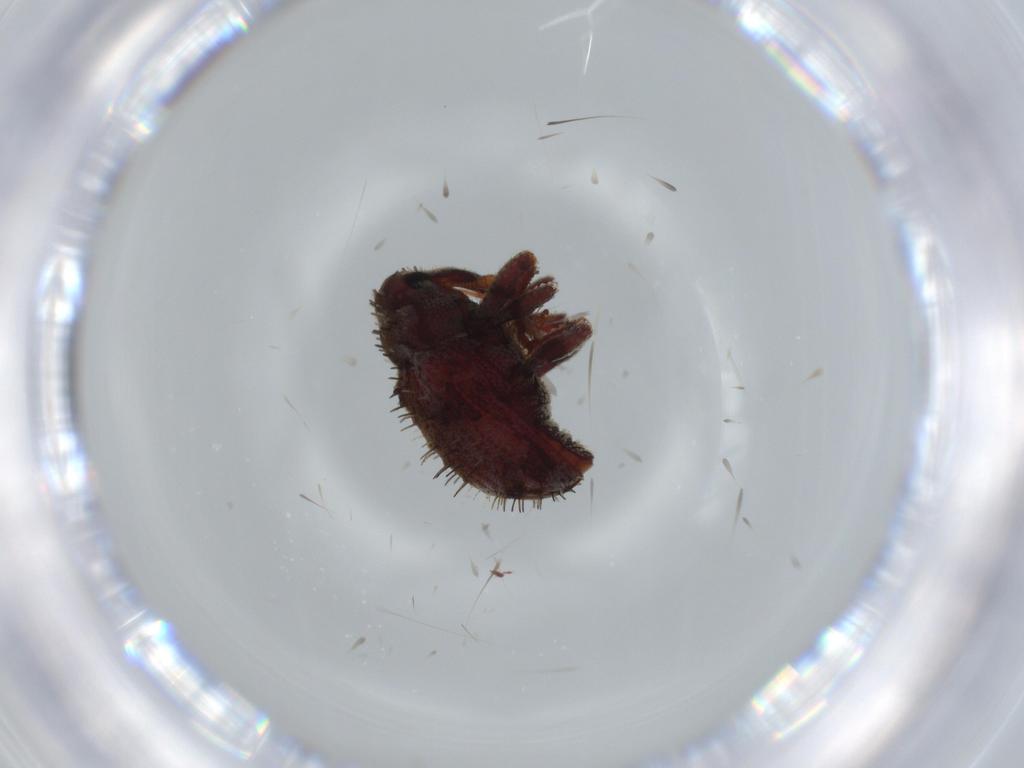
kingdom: Animalia
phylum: Arthropoda
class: Insecta
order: Coleoptera
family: Curculionidae
